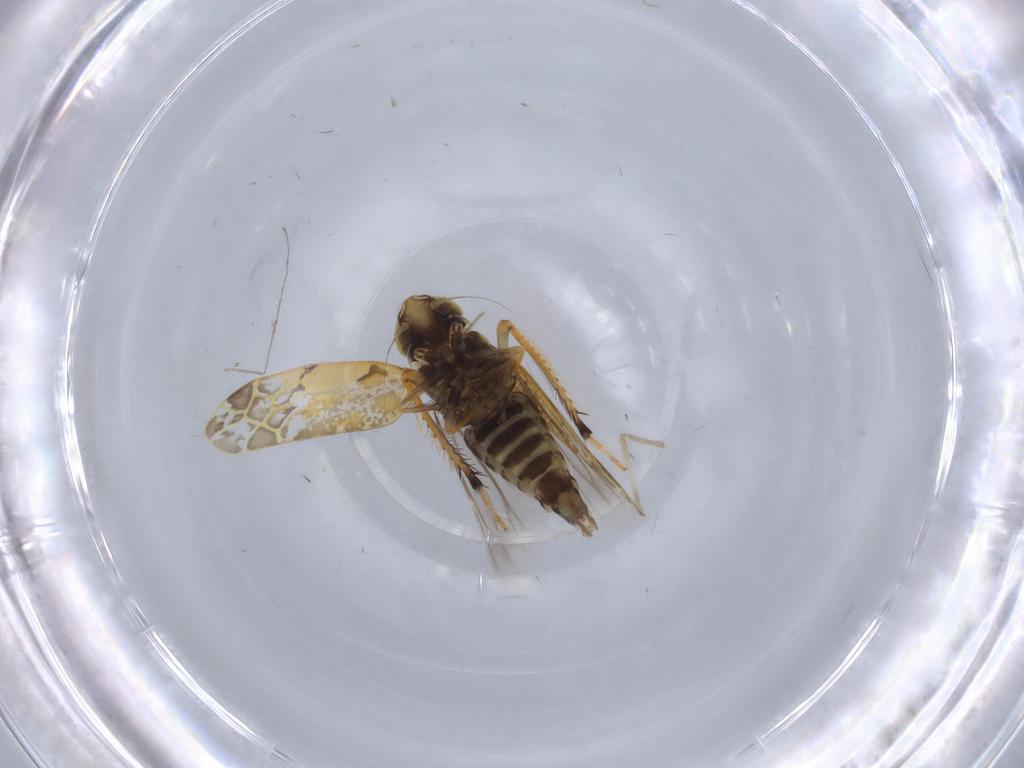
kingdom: Animalia
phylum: Arthropoda
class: Insecta
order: Hemiptera
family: Cicadellidae
